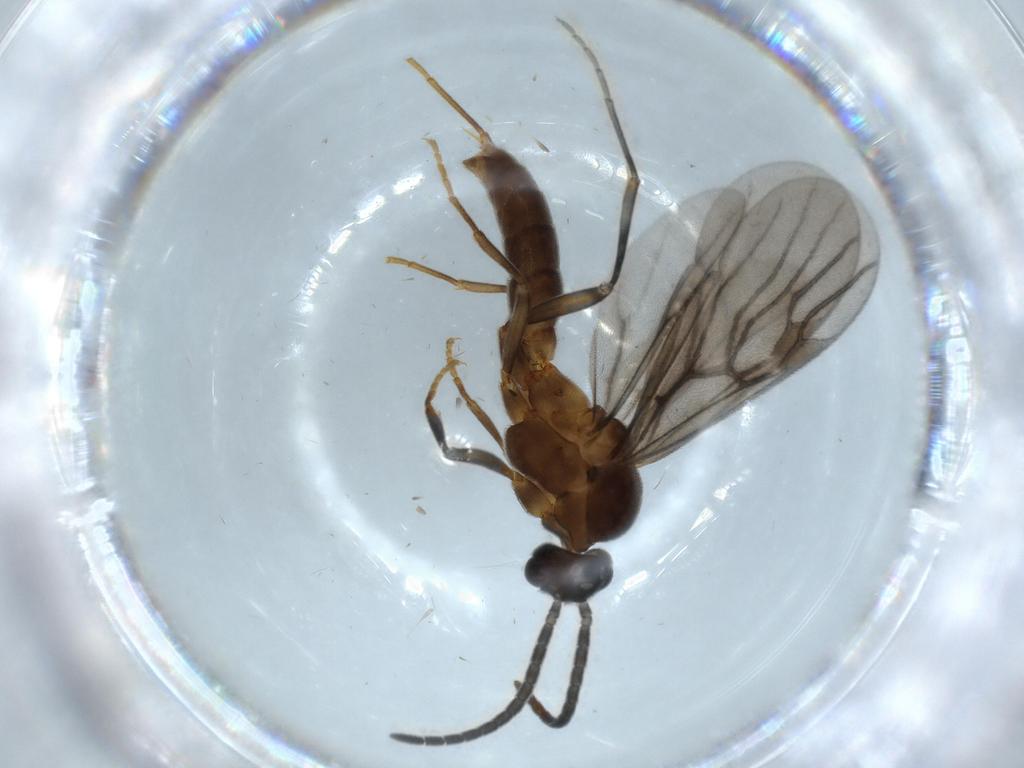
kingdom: Animalia
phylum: Arthropoda
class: Insecta
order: Hymenoptera
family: Formicidae
